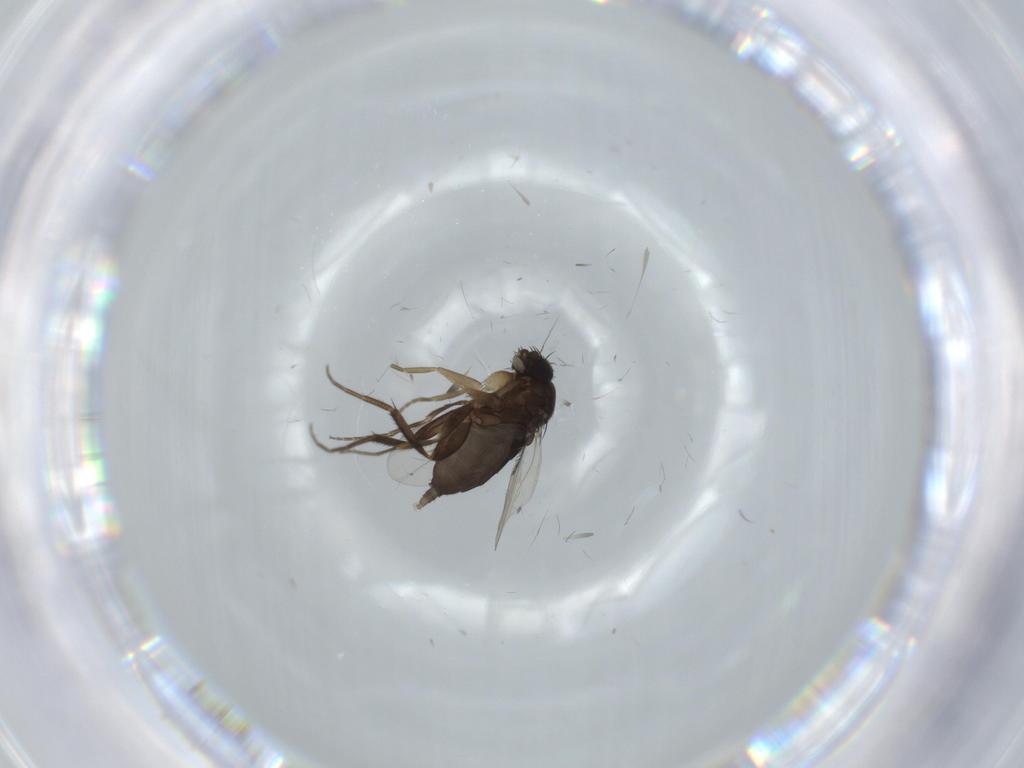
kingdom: Animalia
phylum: Arthropoda
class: Insecta
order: Diptera
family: Phoridae
